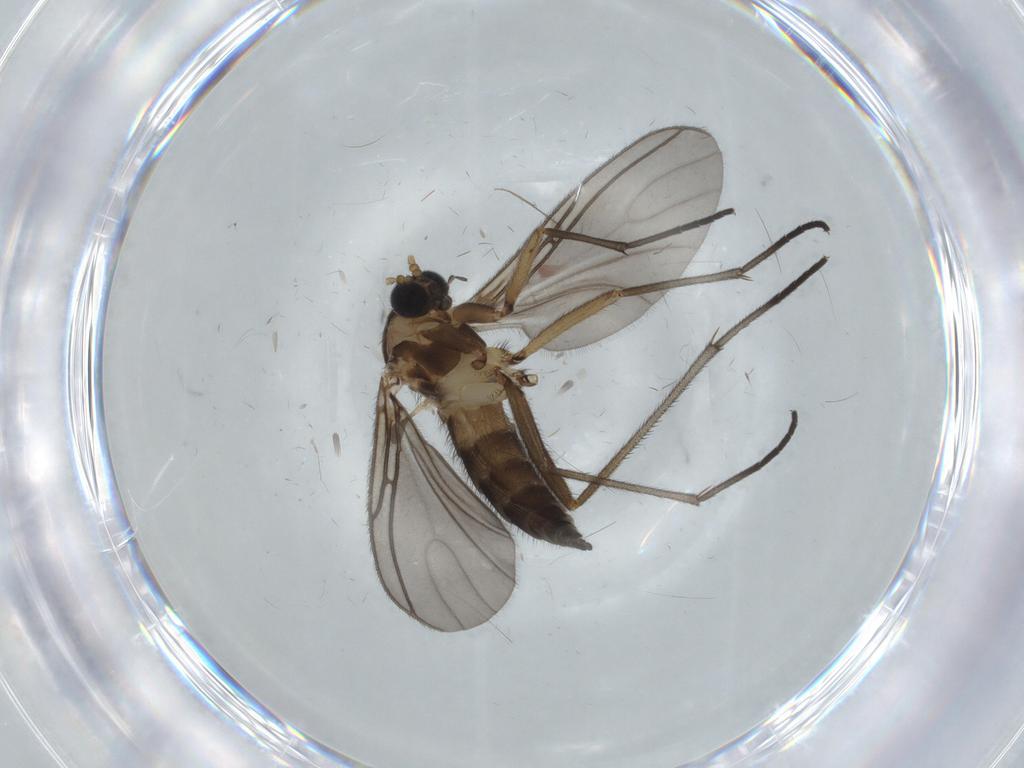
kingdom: Animalia
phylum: Arthropoda
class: Insecta
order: Diptera
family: Sciaridae
